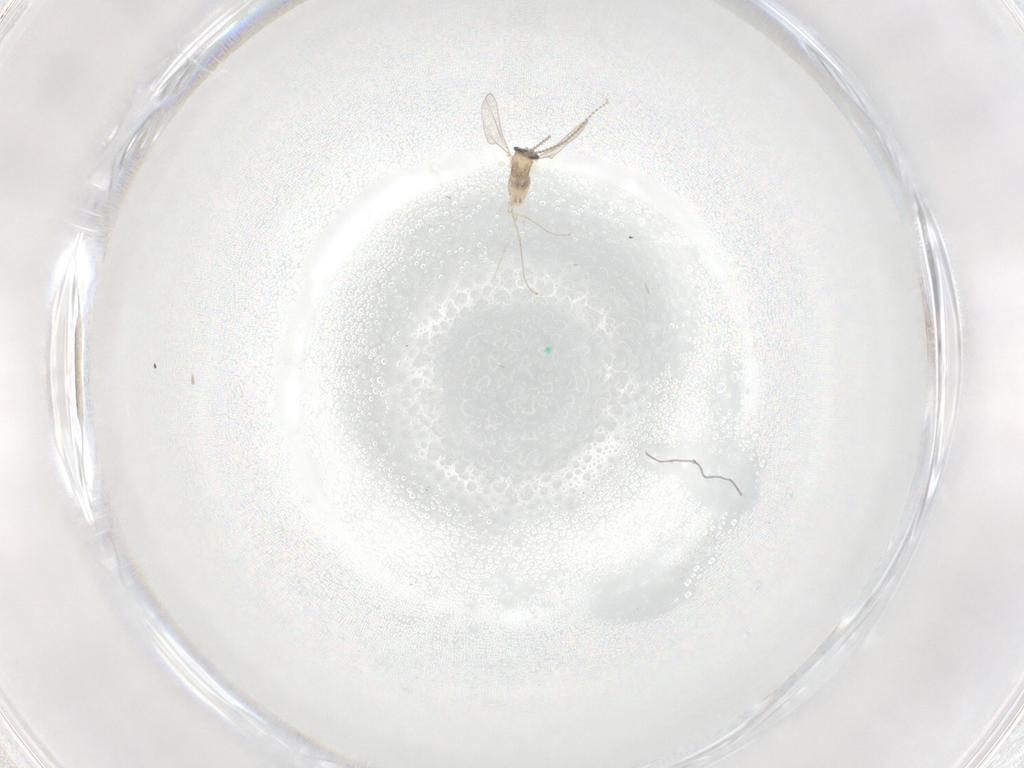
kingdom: Animalia
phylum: Arthropoda
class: Insecta
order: Diptera
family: Cecidomyiidae
